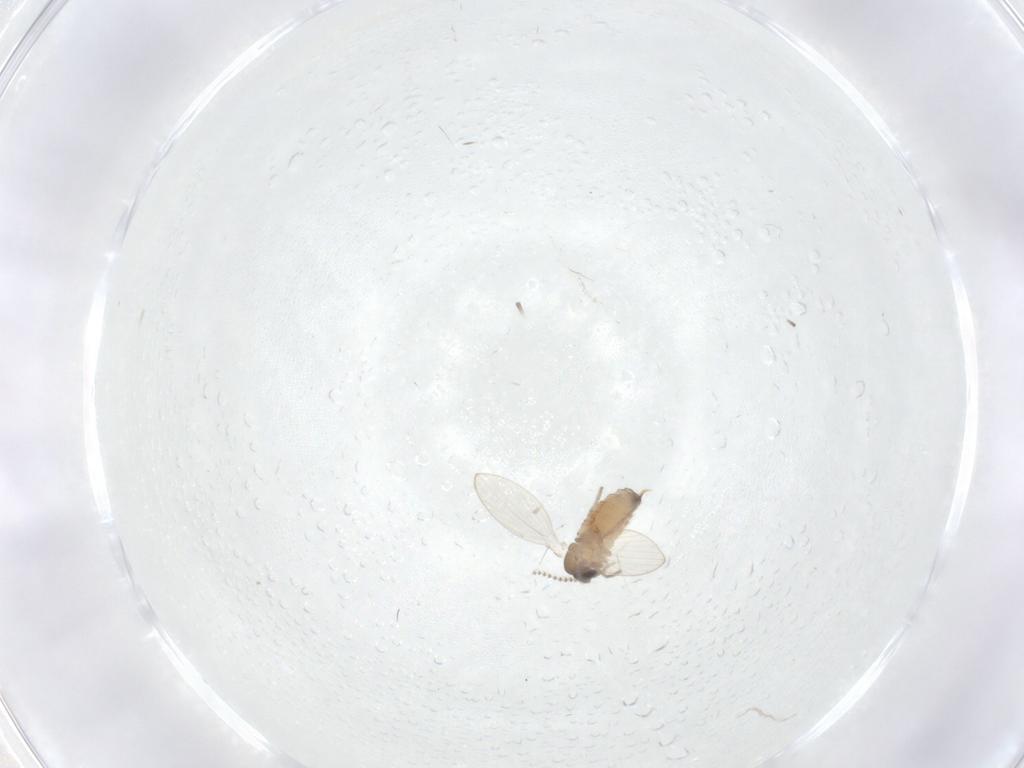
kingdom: Animalia
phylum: Arthropoda
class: Insecta
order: Diptera
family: Psychodidae
